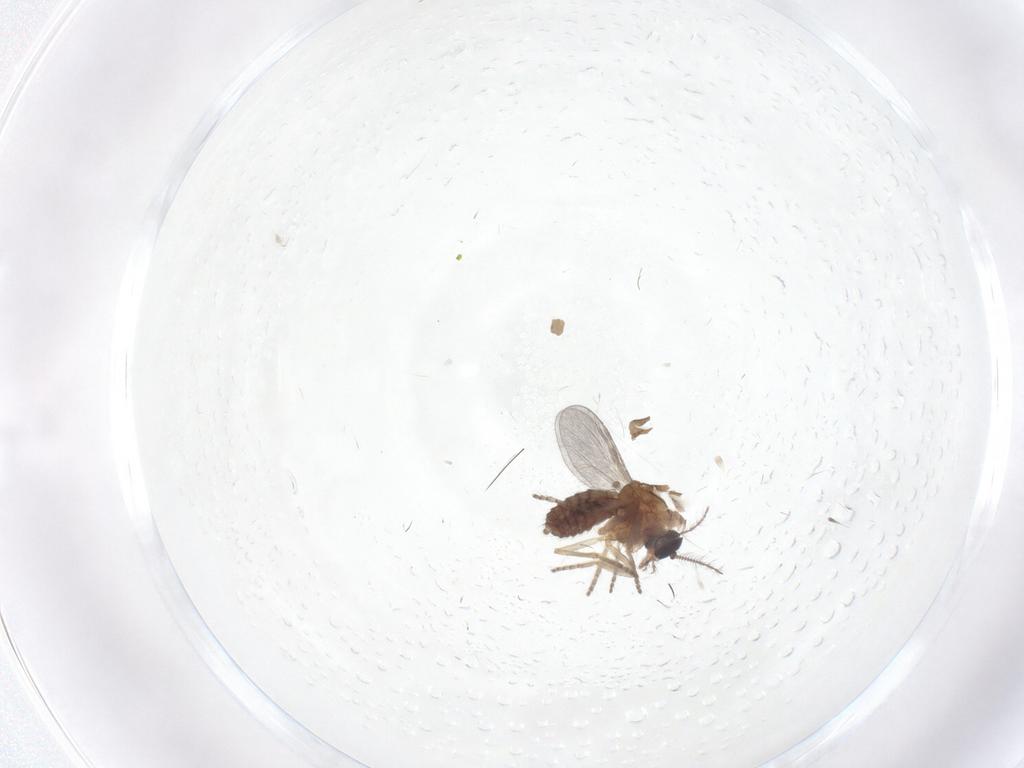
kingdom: Animalia
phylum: Arthropoda
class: Insecta
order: Diptera
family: Ceratopogonidae
